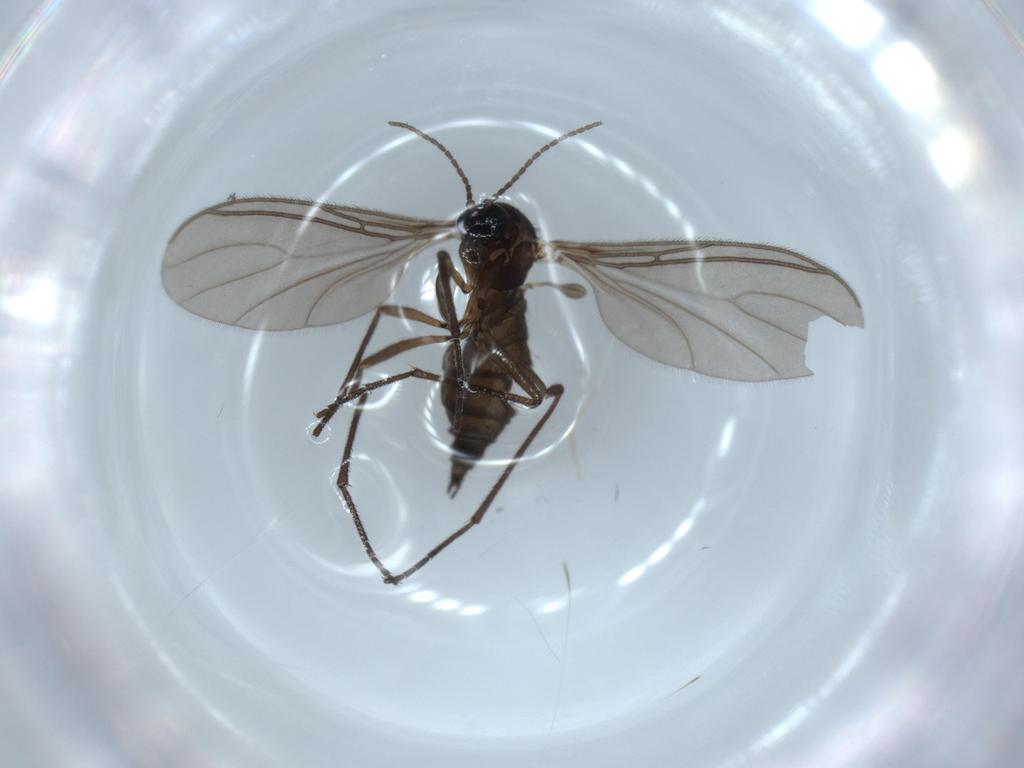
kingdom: Animalia
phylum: Arthropoda
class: Insecta
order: Diptera
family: Sciaridae
